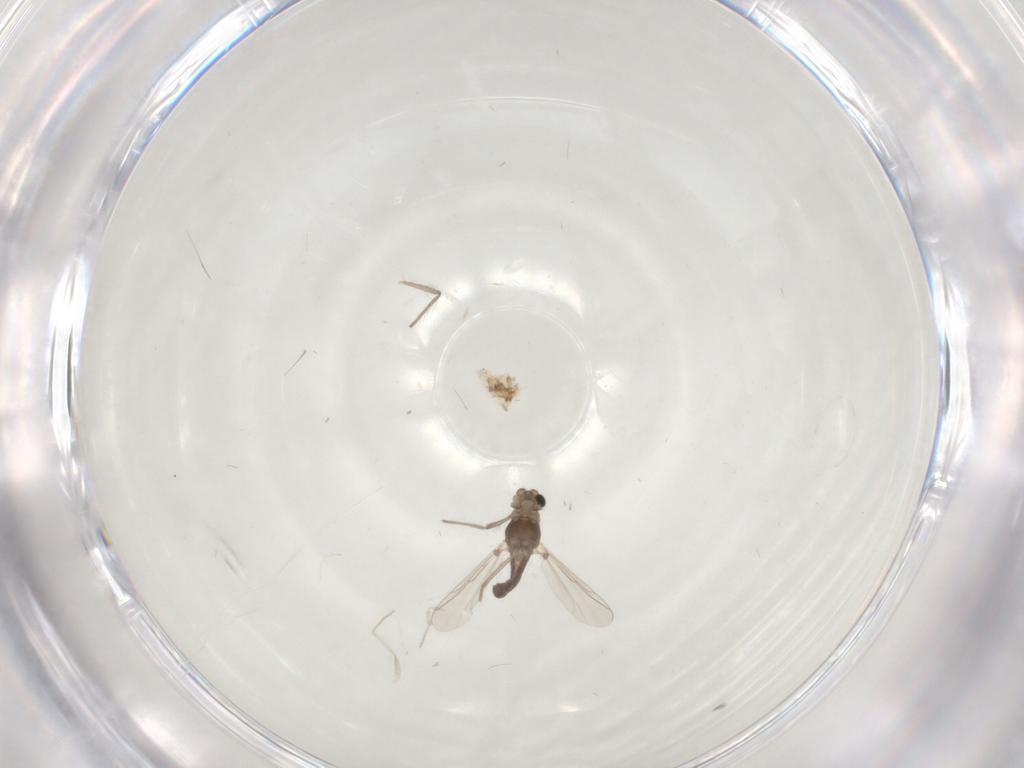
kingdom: Animalia
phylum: Arthropoda
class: Insecta
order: Diptera
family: Chironomidae
